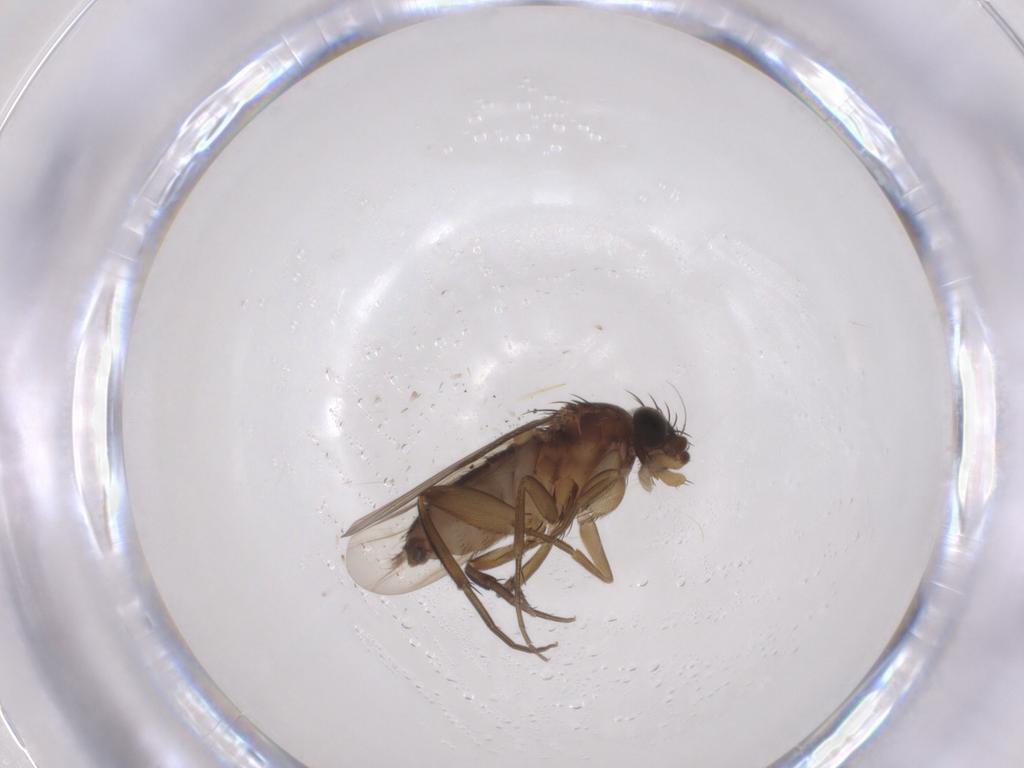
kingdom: Animalia
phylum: Arthropoda
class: Insecta
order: Diptera
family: Phoridae
